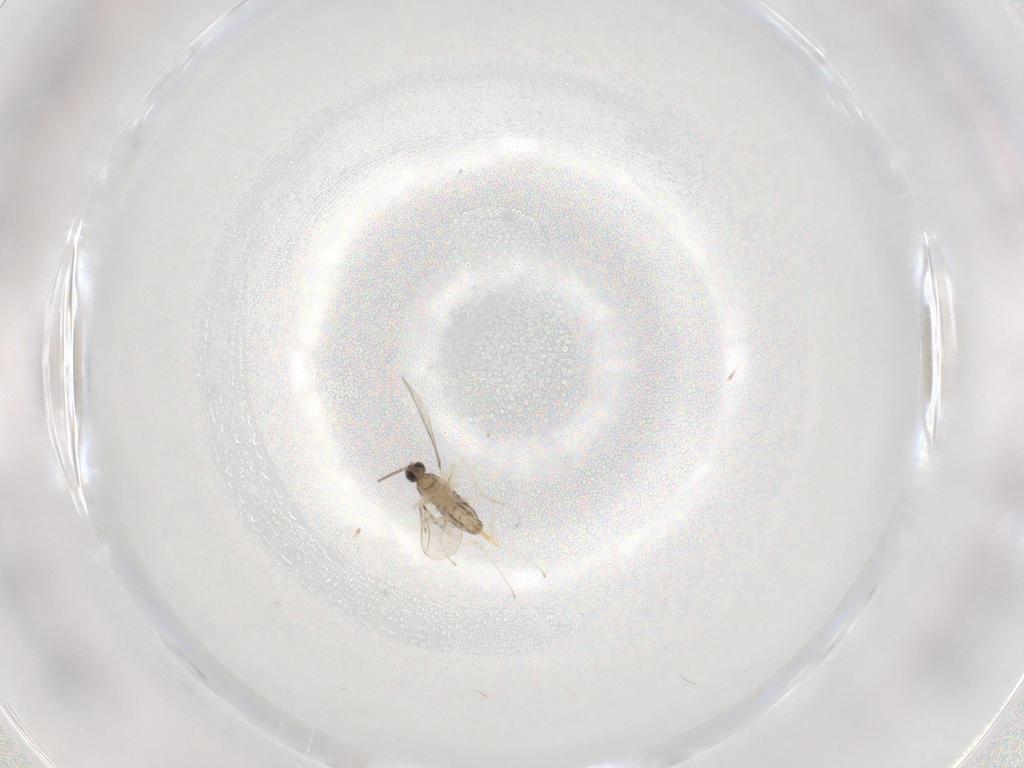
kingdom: Animalia
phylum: Arthropoda
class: Insecta
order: Diptera
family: Cecidomyiidae
